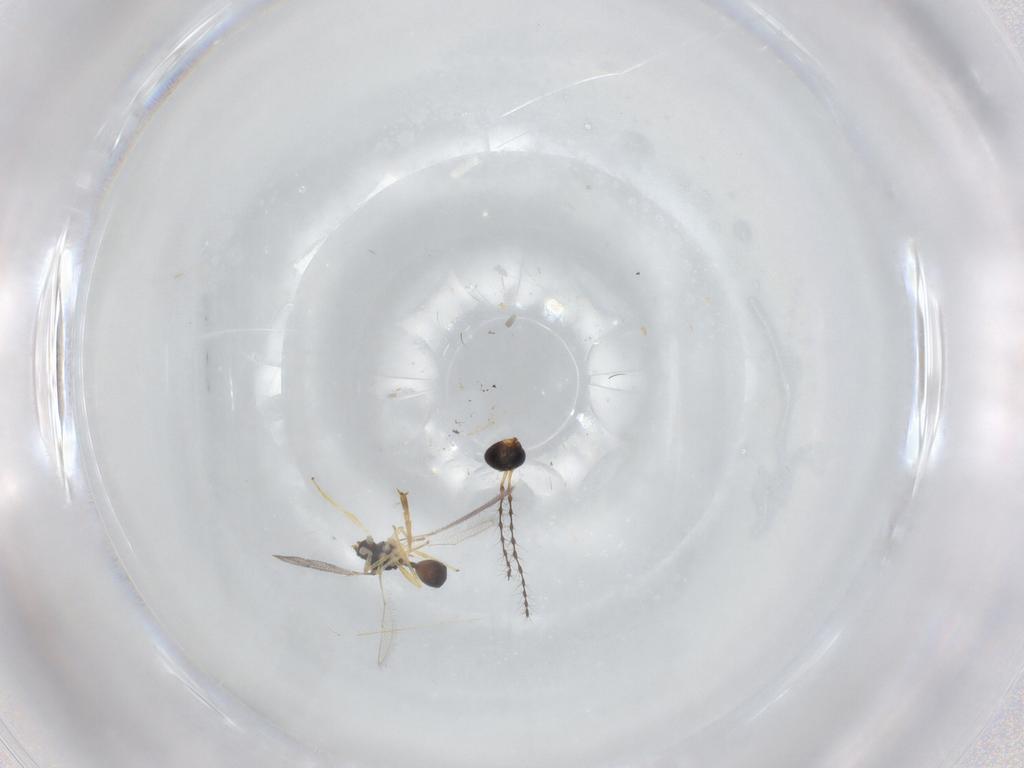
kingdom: Animalia
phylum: Arthropoda
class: Insecta
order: Hymenoptera
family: Diparidae
